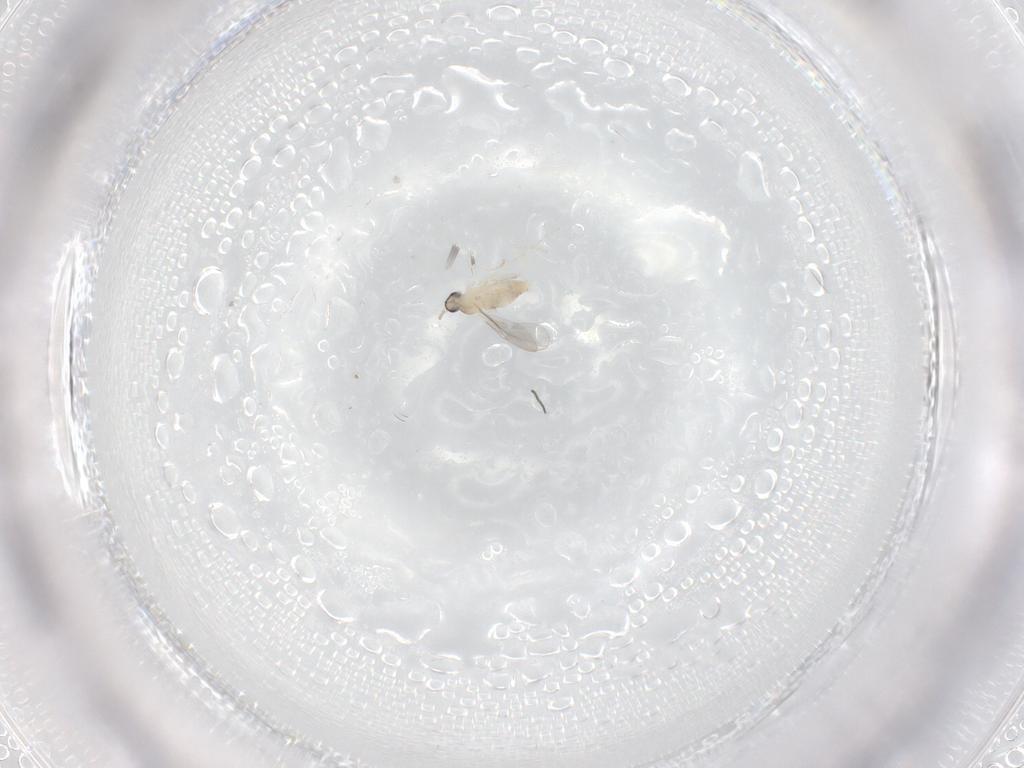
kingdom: Animalia
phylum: Arthropoda
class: Insecta
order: Diptera
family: Cecidomyiidae
